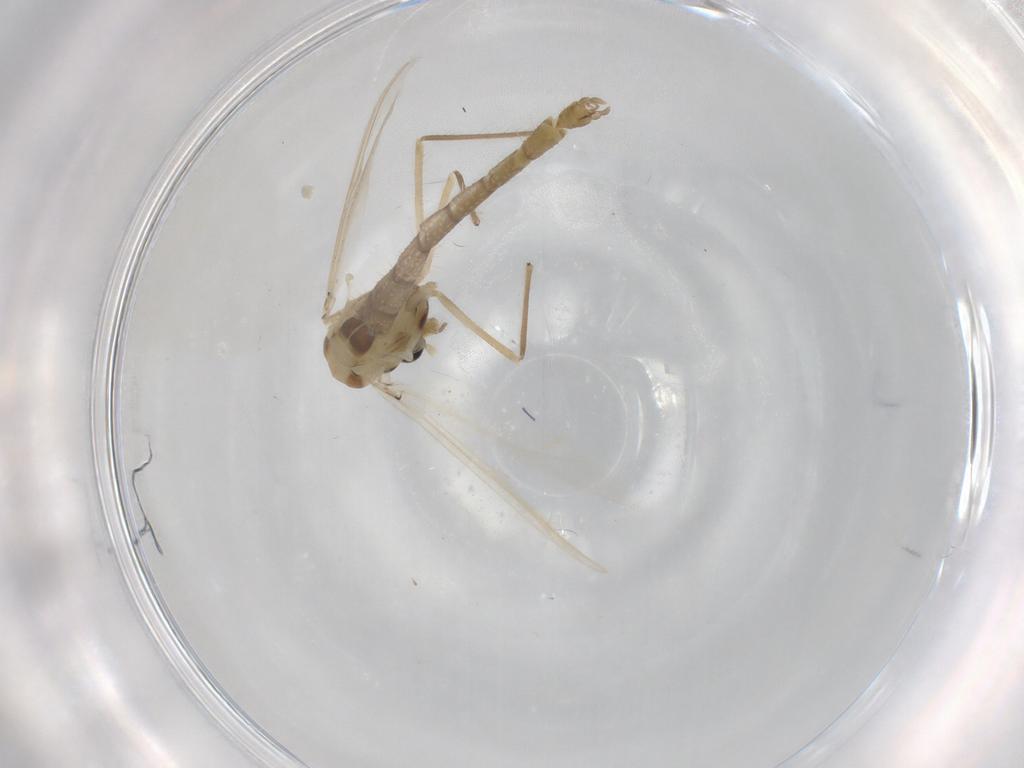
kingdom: Animalia
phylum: Arthropoda
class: Insecta
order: Diptera
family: Chironomidae
